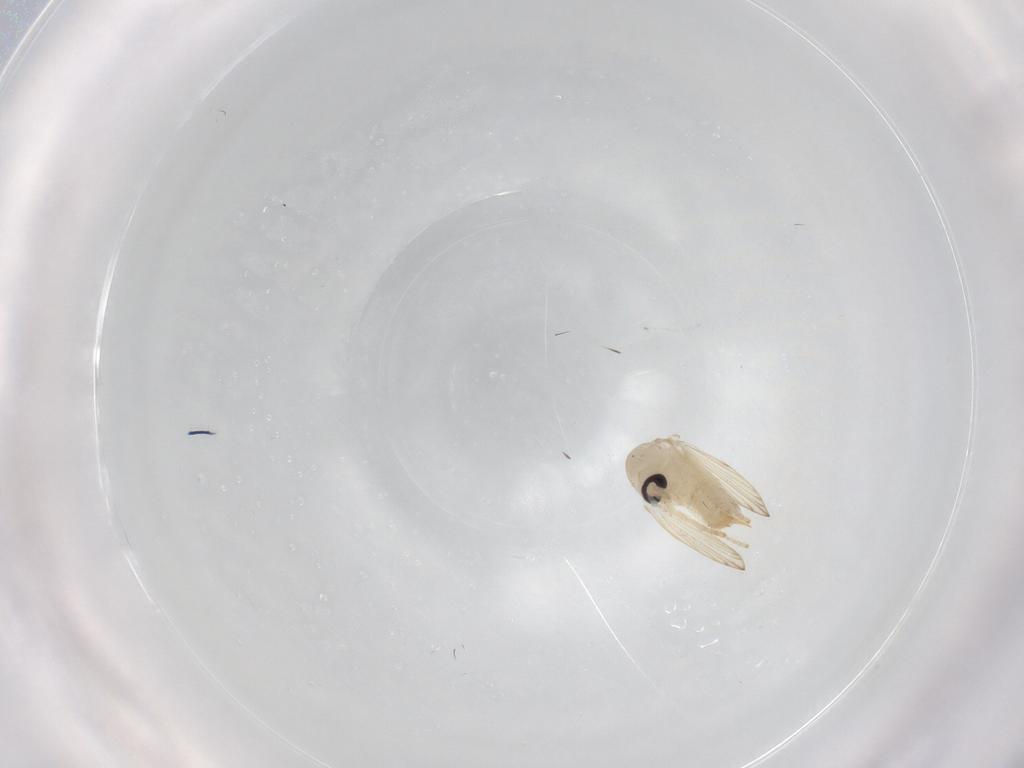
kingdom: Animalia
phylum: Arthropoda
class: Insecta
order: Diptera
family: Psychodidae
